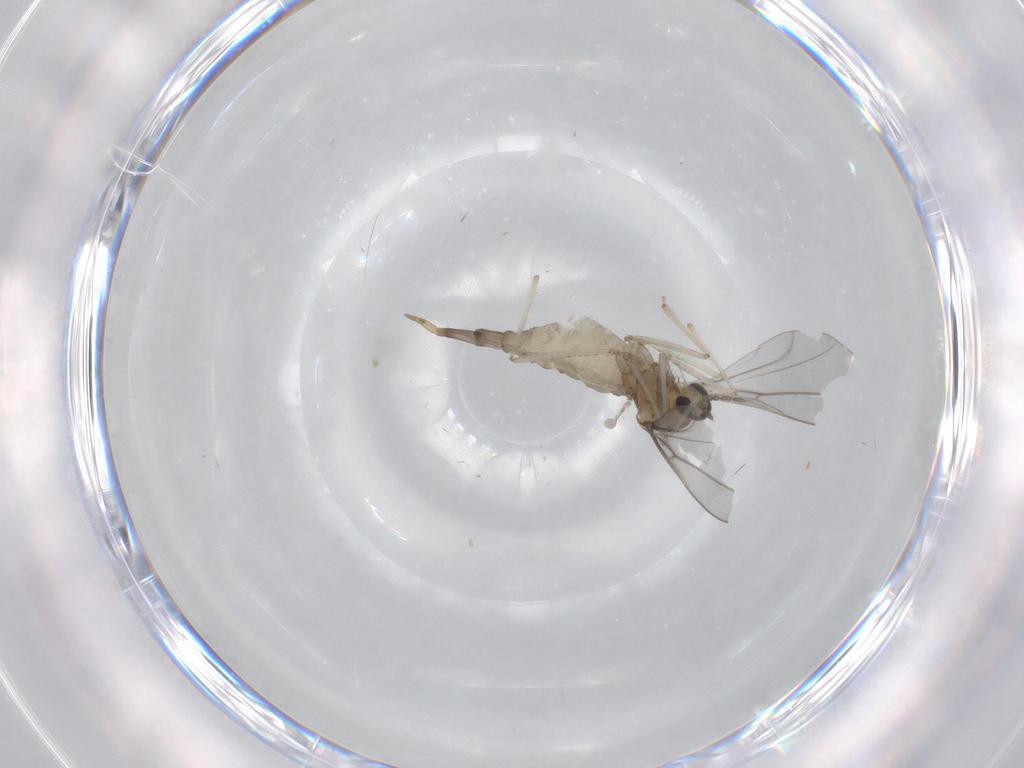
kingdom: Animalia
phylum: Arthropoda
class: Insecta
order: Diptera
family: Cecidomyiidae
